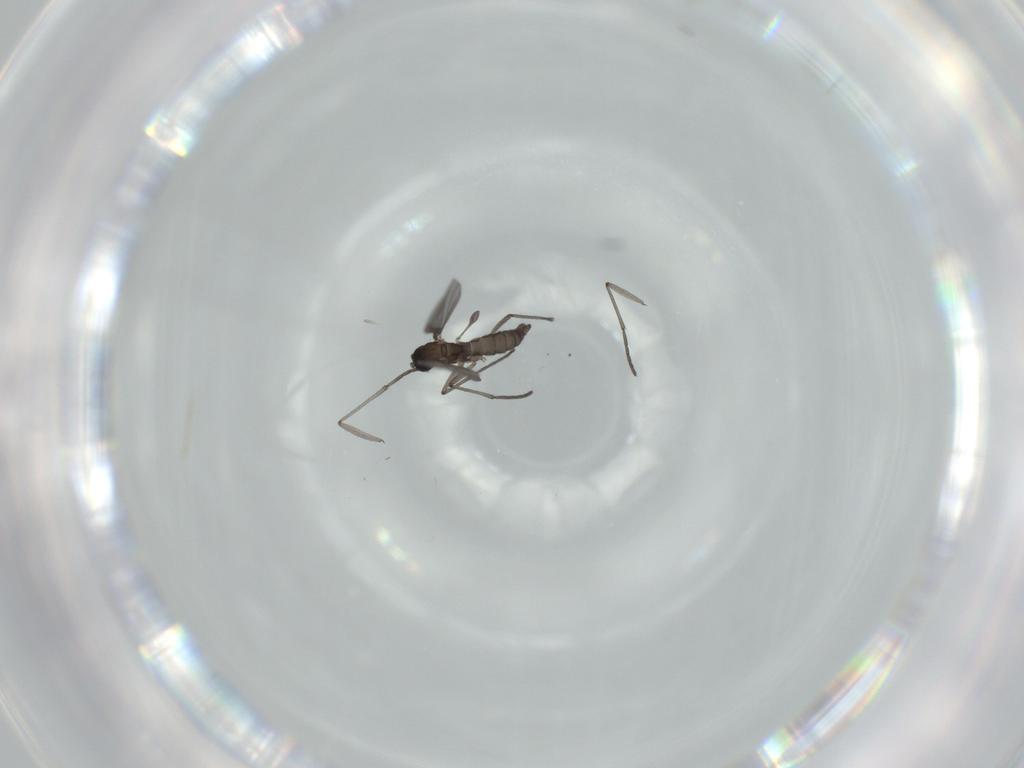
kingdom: Animalia
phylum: Arthropoda
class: Insecta
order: Diptera
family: Sciaridae
